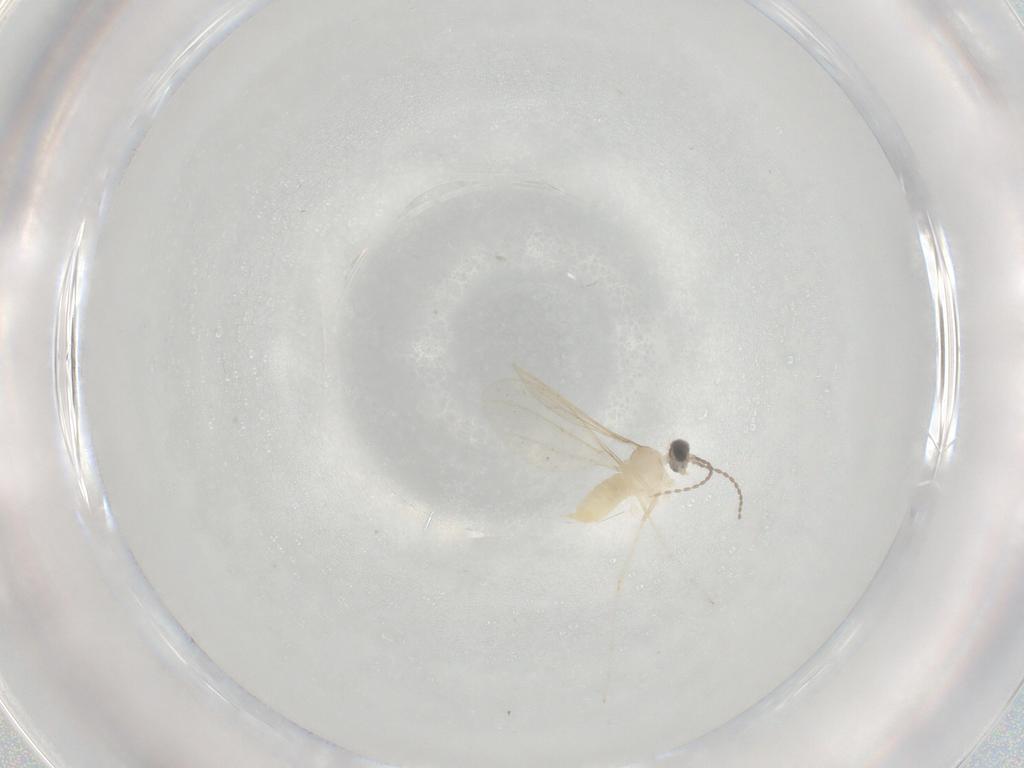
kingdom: Animalia
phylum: Arthropoda
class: Insecta
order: Diptera
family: Cecidomyiidae
